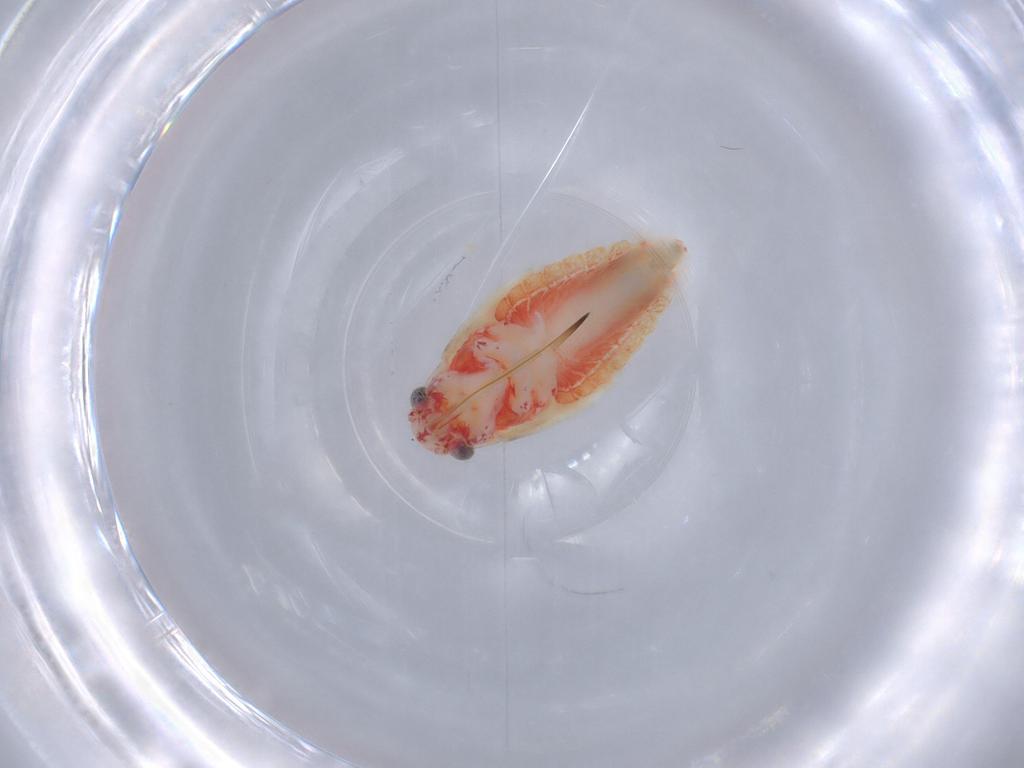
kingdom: Animalia
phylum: Arthropoda
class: Insecta
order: Hemiptera
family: Miridae
